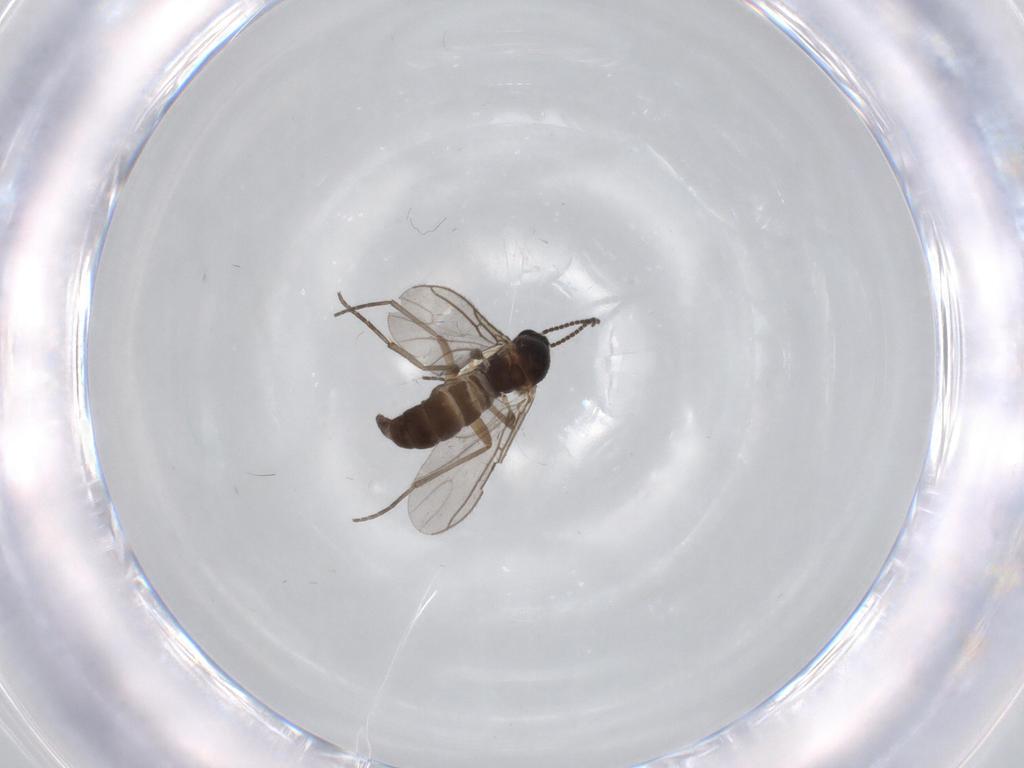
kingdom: Animalia
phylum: Arthropoda
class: Insecta
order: Diptera
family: Sciaridae
